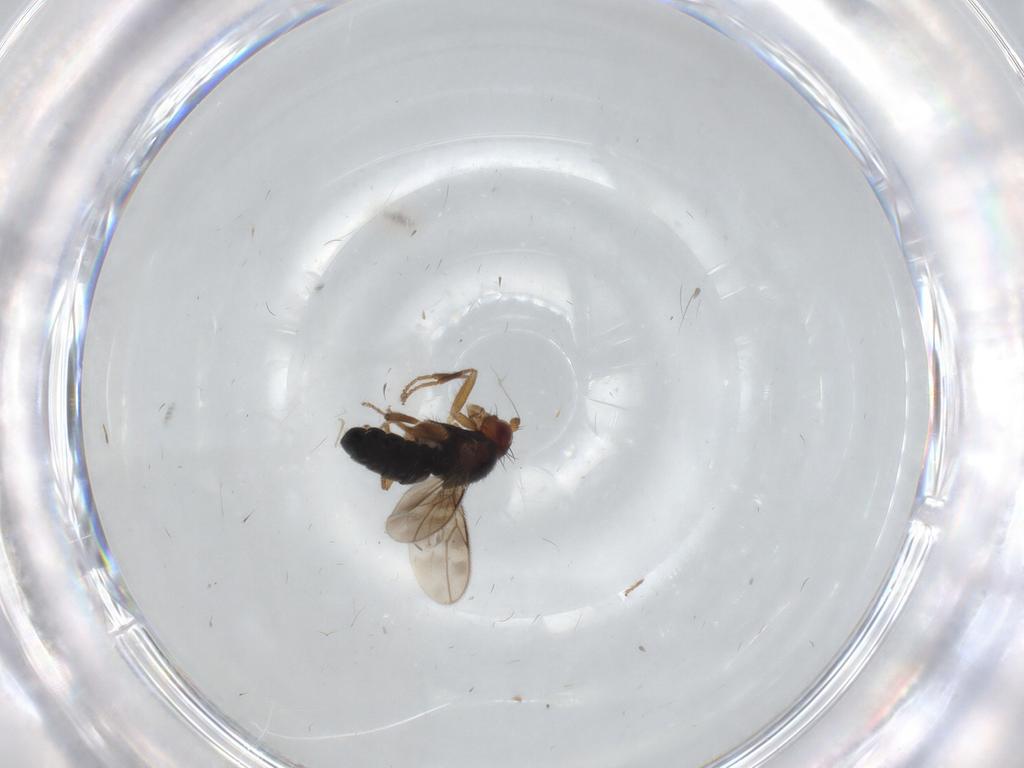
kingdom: Animalia
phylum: Arthropoda
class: Insecta
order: Diptera
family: Sphaeroceridae
